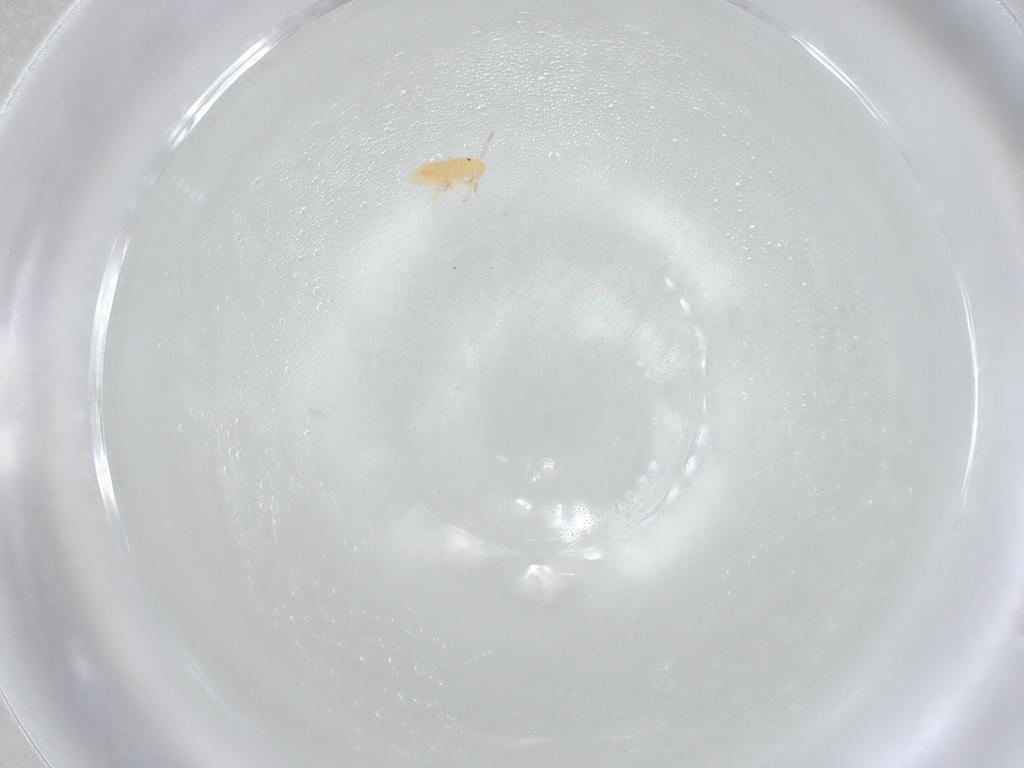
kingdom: Animalia
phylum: Arthropoda
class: Insecta
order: Hemiptera
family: Anthocoridae
